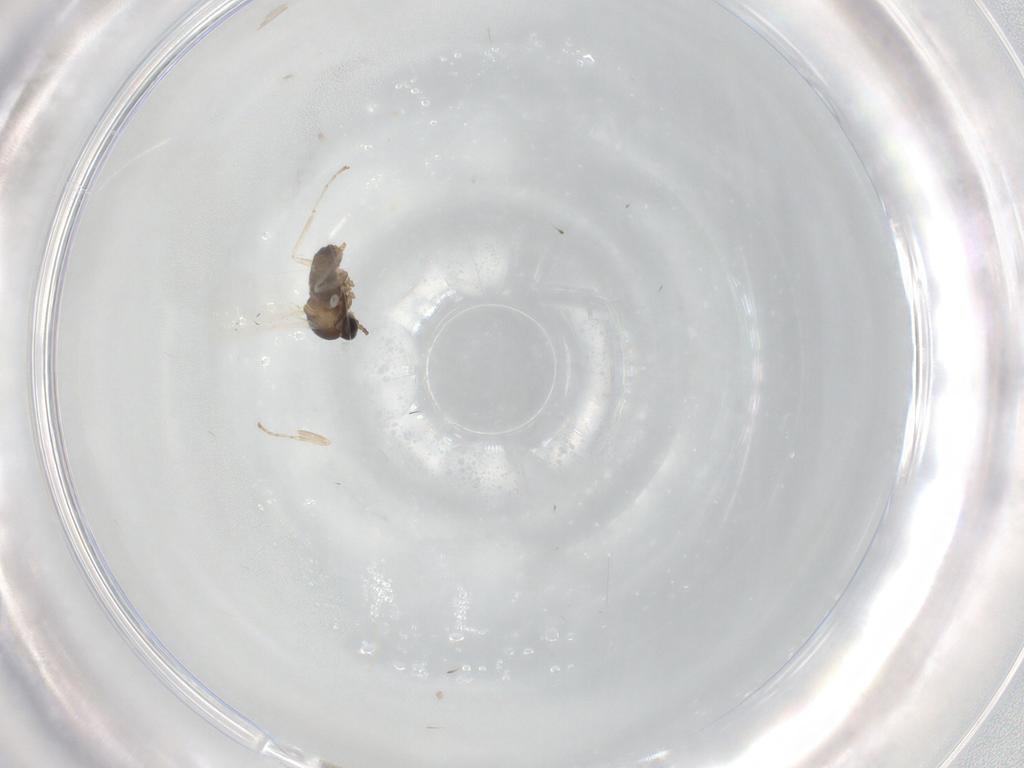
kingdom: Animalia
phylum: Arthropoda
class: Insecta
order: Diptera
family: Cecidomyiidae
